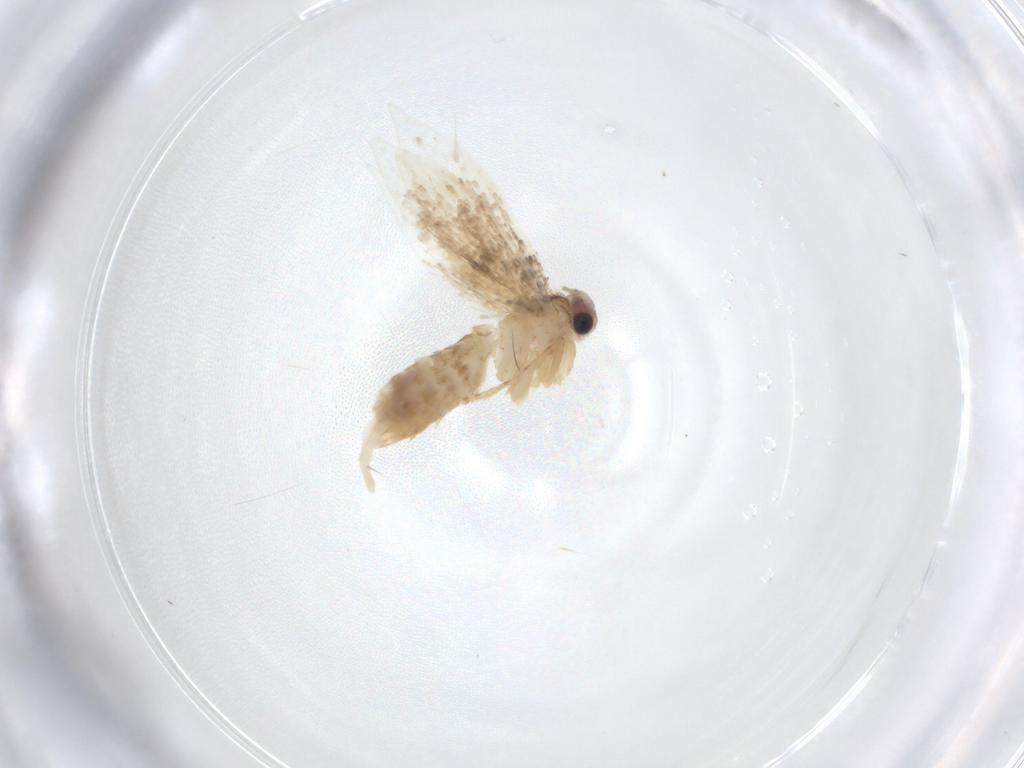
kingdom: Animalia
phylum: Arthropoda
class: Insecta
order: Lepidoptera
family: Tineidae
